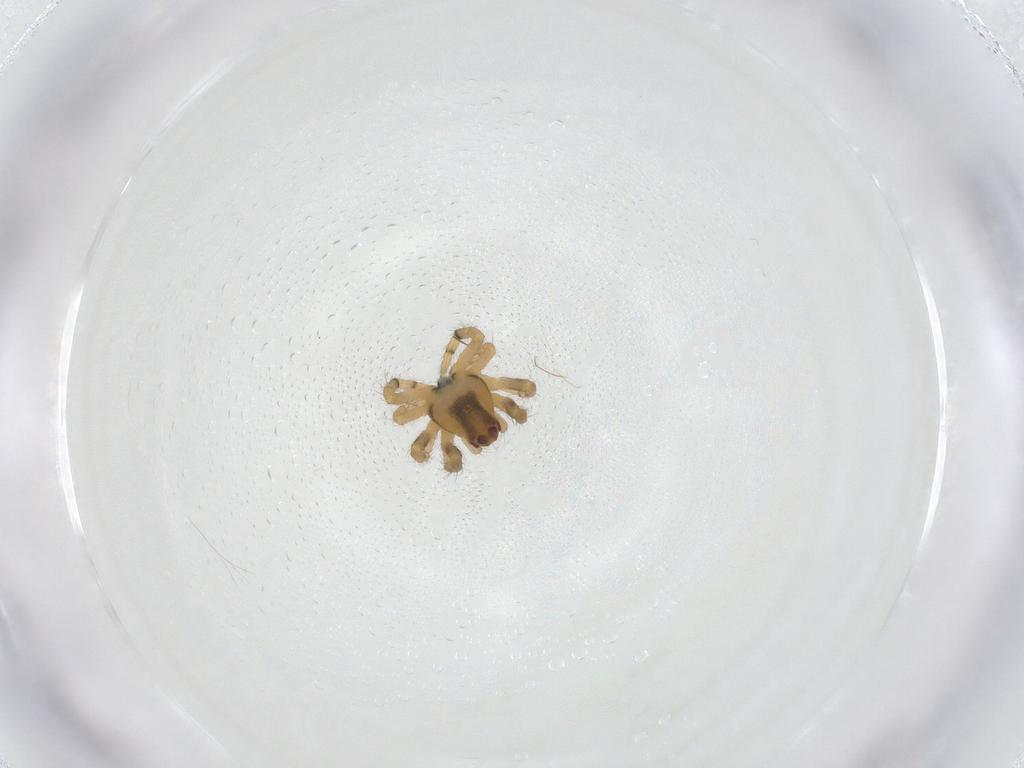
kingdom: Animalia
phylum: Arthropoda
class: Arachnida
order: Araneae
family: Araneidae
